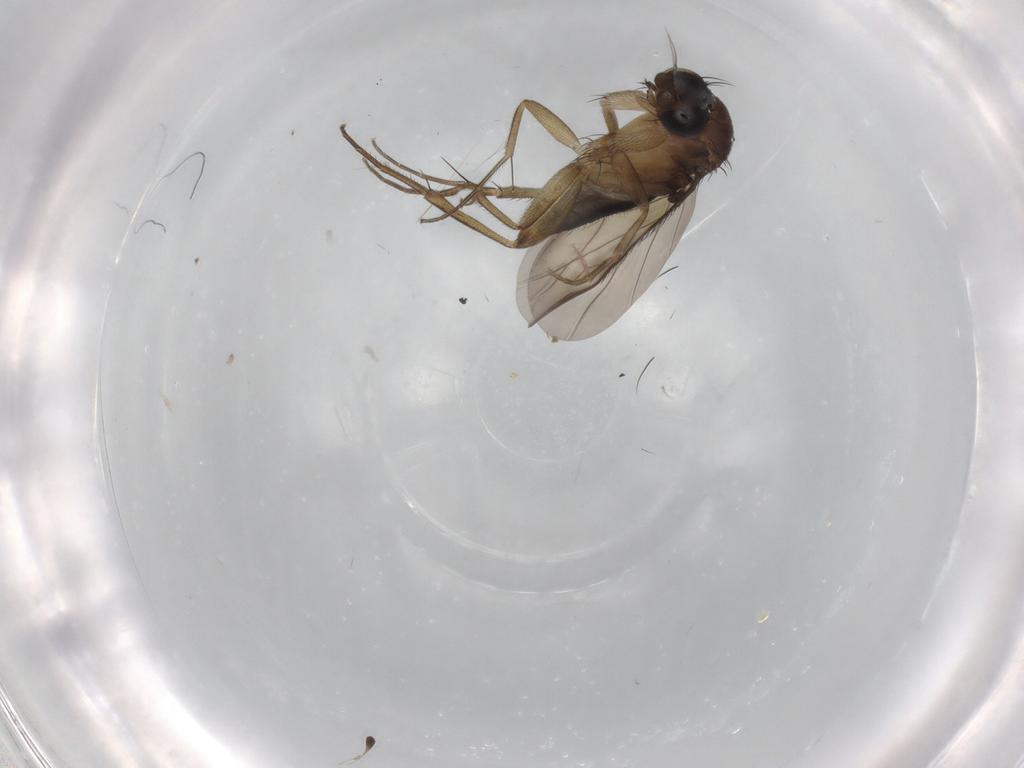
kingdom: Animalia
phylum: Arthropoda
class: Insecta
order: Diptera
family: Phoridae
